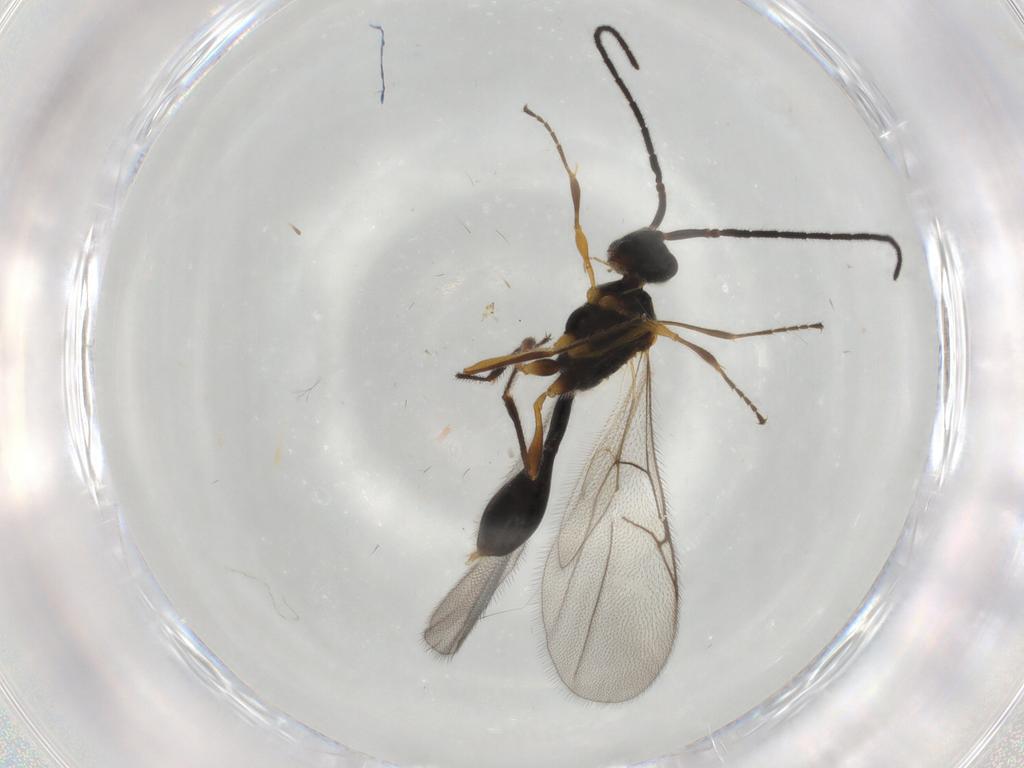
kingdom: Animalia
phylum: Arthropoda
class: Insecta
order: Hymenoptera
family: Diapriidae
